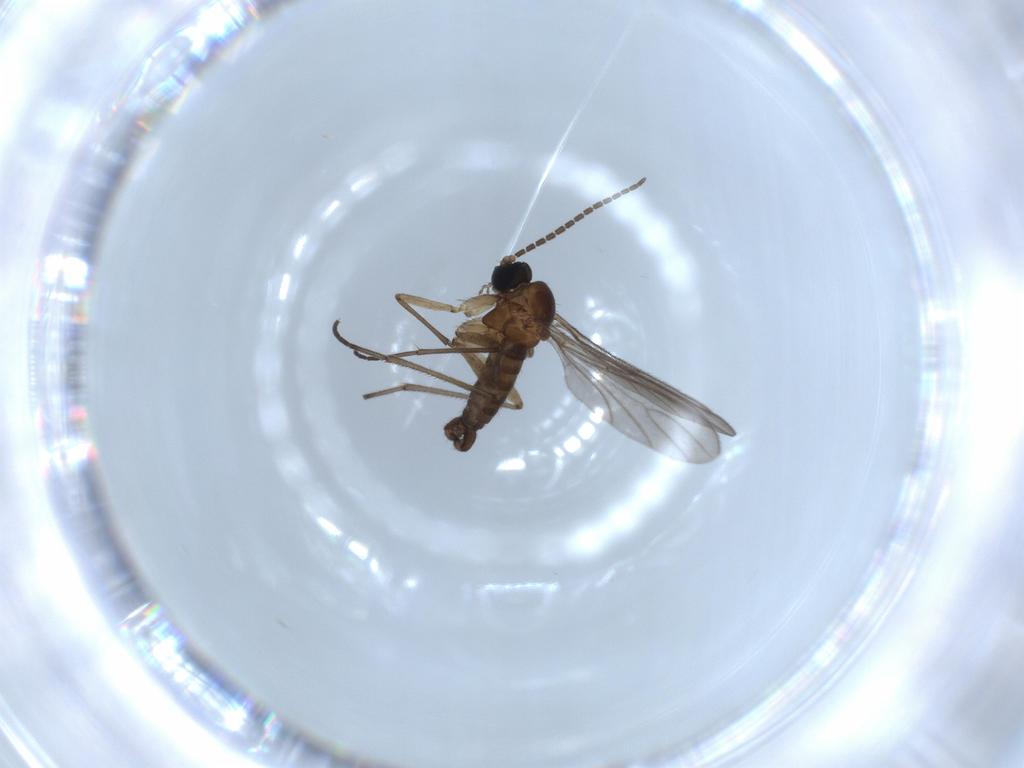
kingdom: Animalia
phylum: Arthropoda
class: Insecta
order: Diptera
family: Sciaridae
